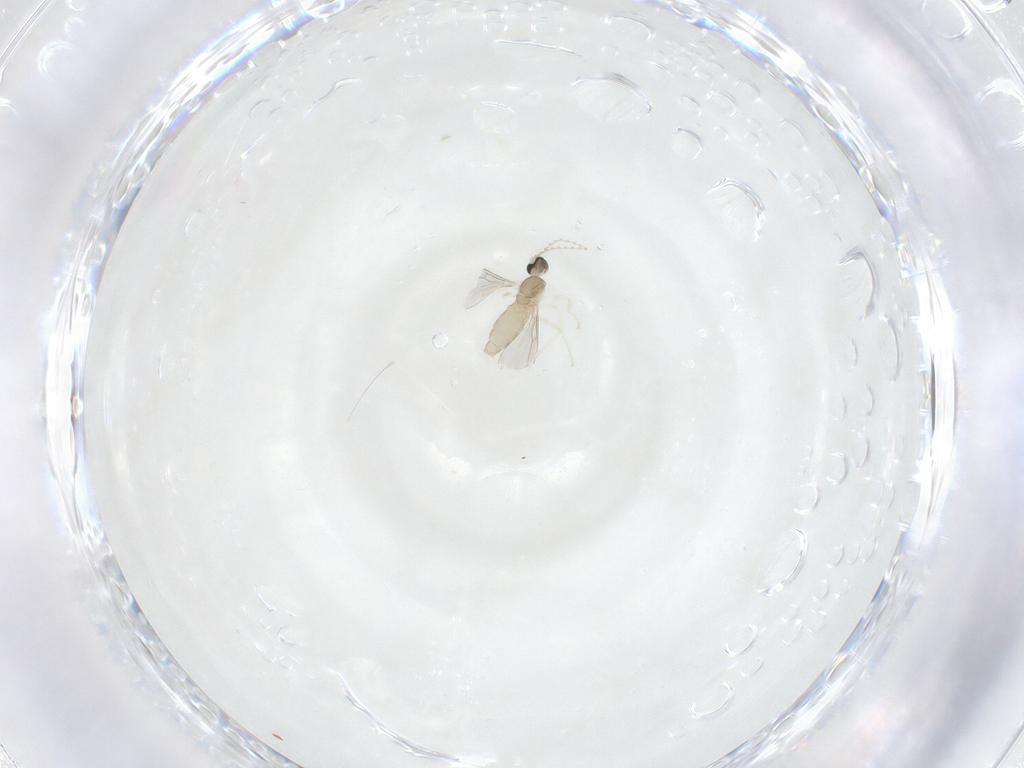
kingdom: Animalia
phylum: Arthropoda
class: Insecta
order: Diptera
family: Cecidomyiidae
